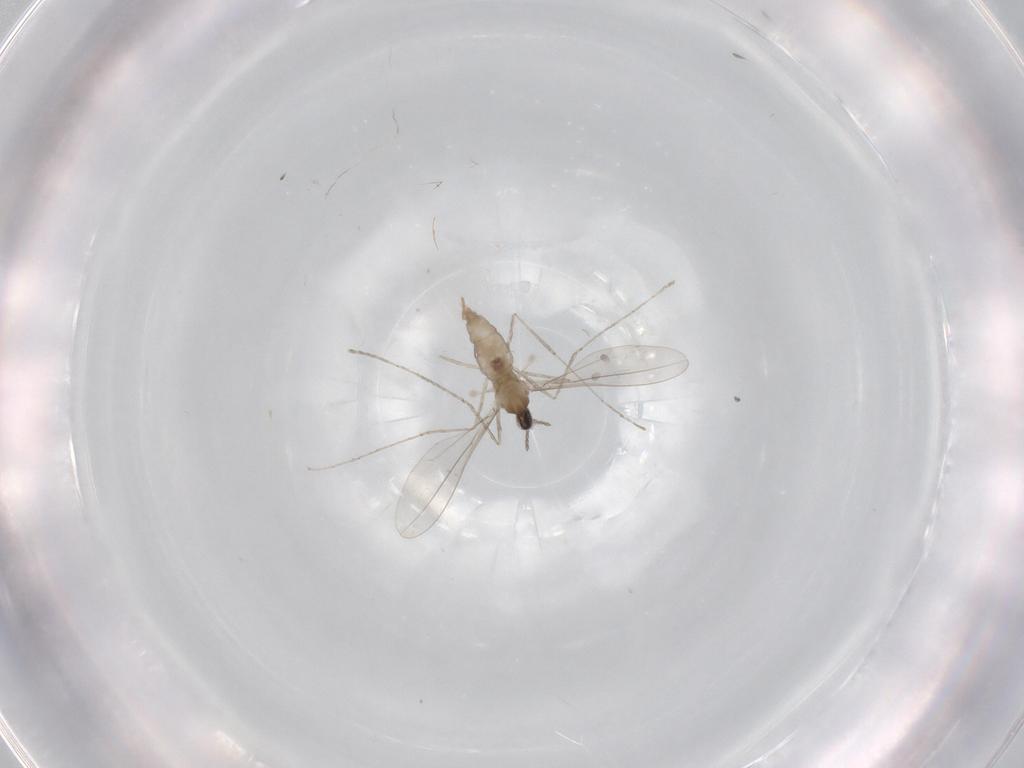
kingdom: Animalia
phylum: Arthropoda
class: Insecta
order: Diptera
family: Cecidomyiidae
